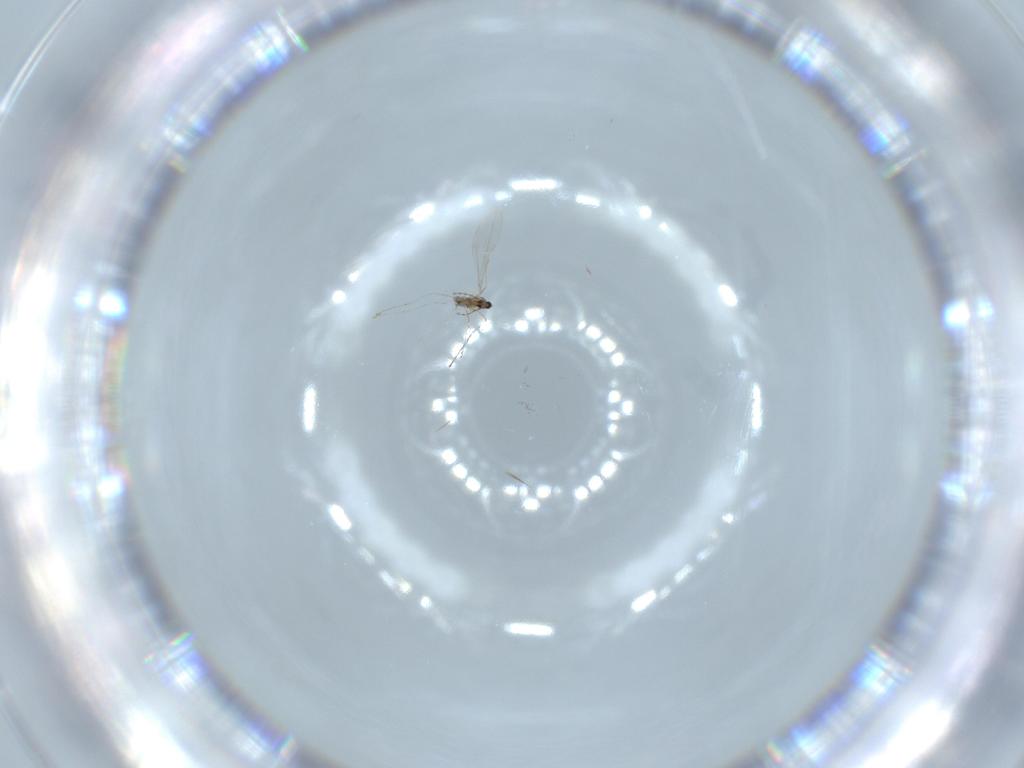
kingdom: Animalia
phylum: Arthropoda
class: Insecta
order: Diptera
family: Cecidomyiidae
